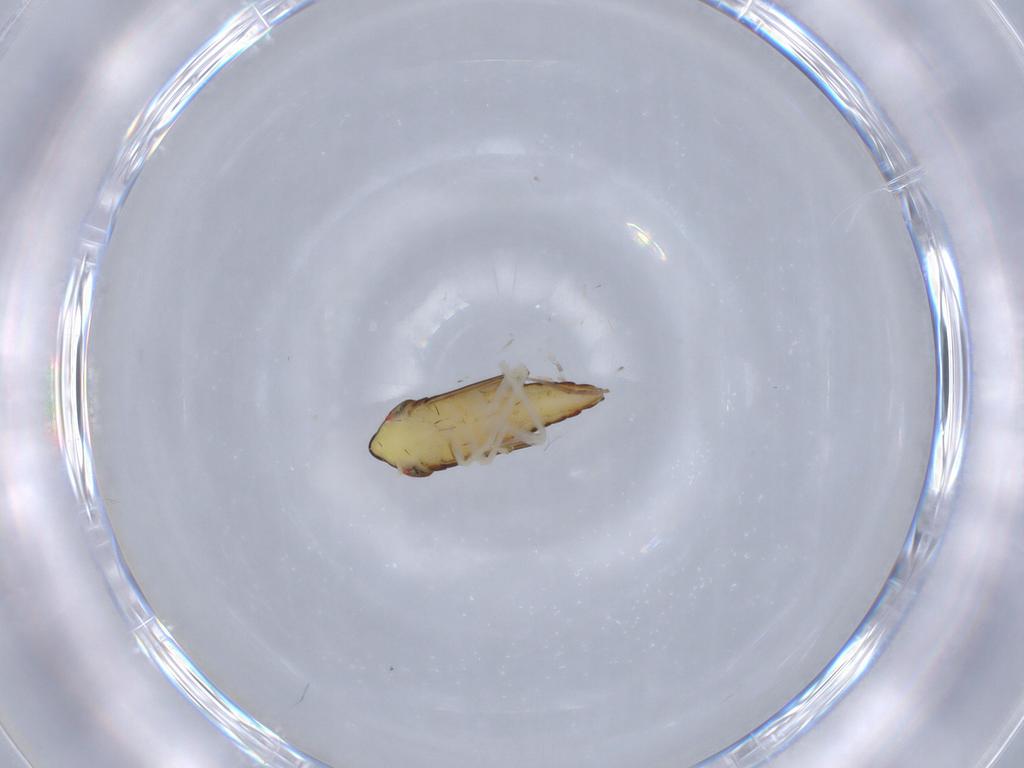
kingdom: Animalia
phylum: Arthropoda
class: Insecta
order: Hemiptera
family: Cicadellidae
